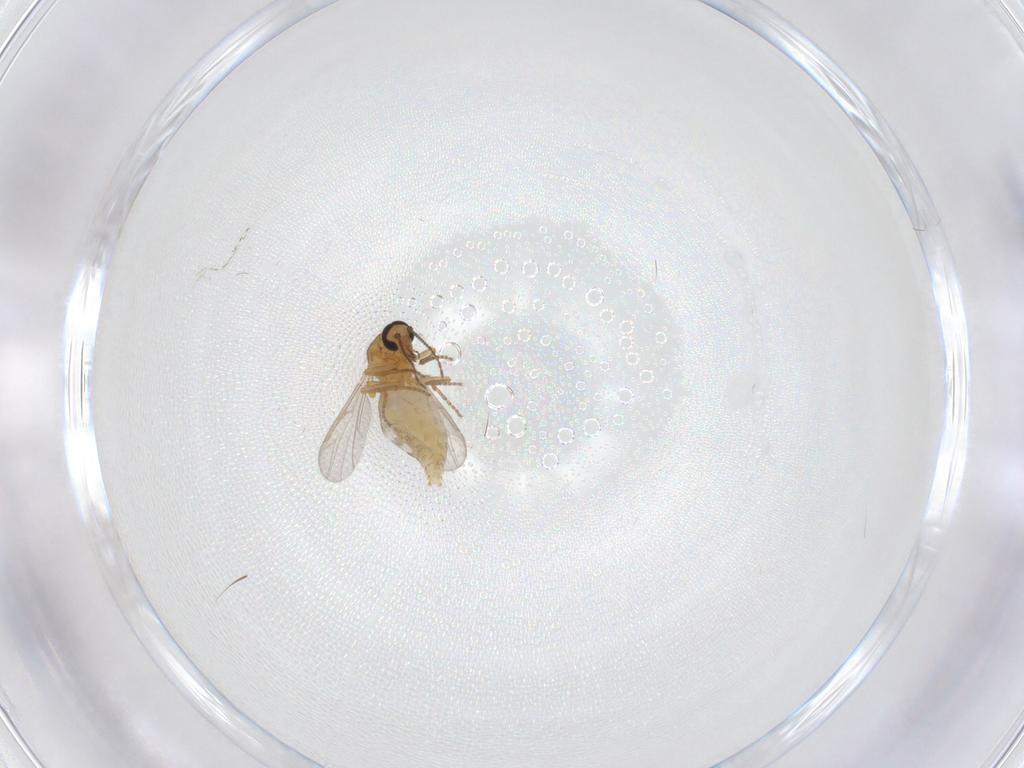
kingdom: Animalia
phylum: Arthropoda
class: Insecta
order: Diptera
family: Ceratopogonidae
